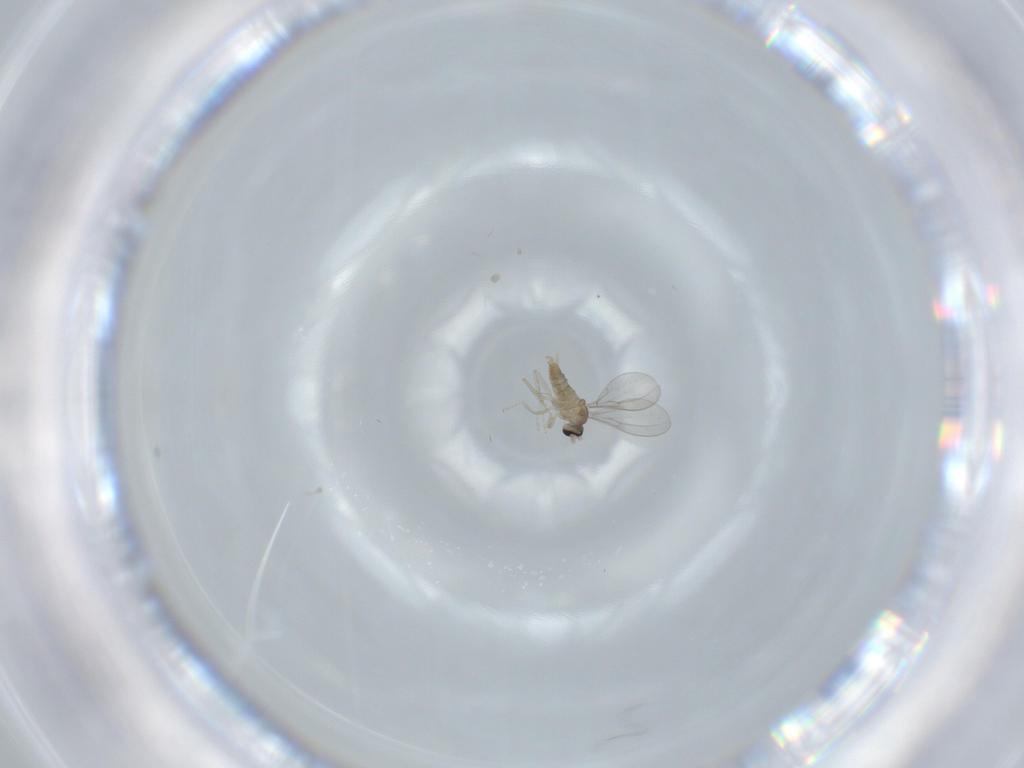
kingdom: Animalia
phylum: Arthropoda
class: Insecta
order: Diptera
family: Cecidomyiidae
